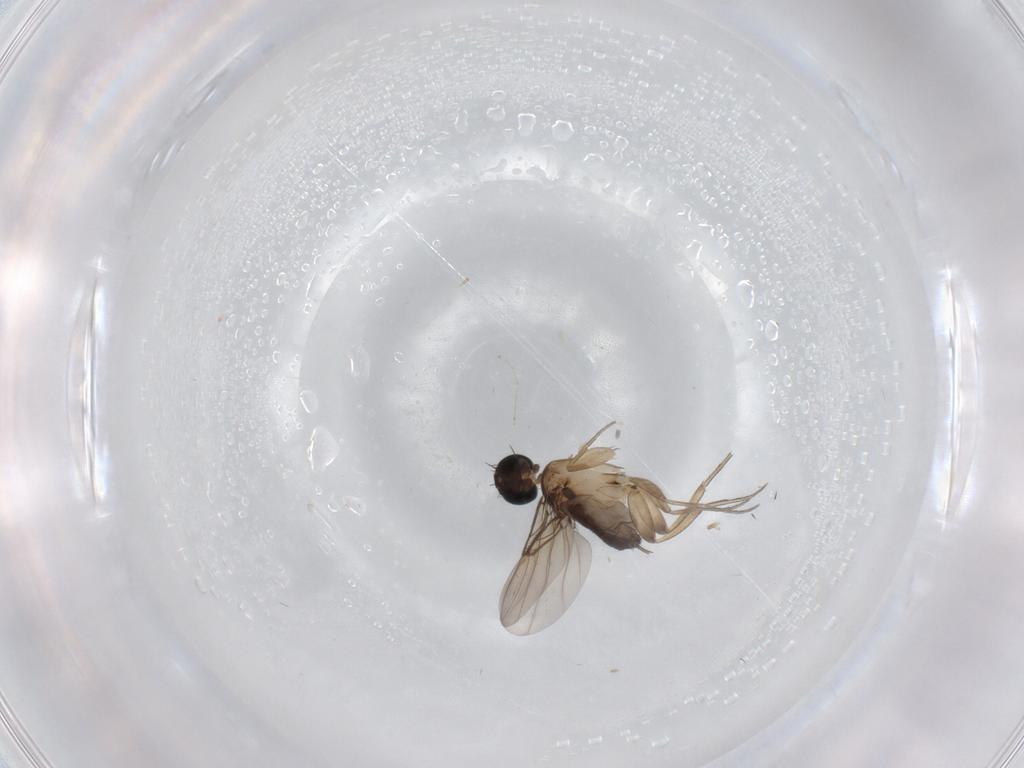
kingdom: Animalia
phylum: Arthropoda
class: Insecta
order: Diptera
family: Phoridae
